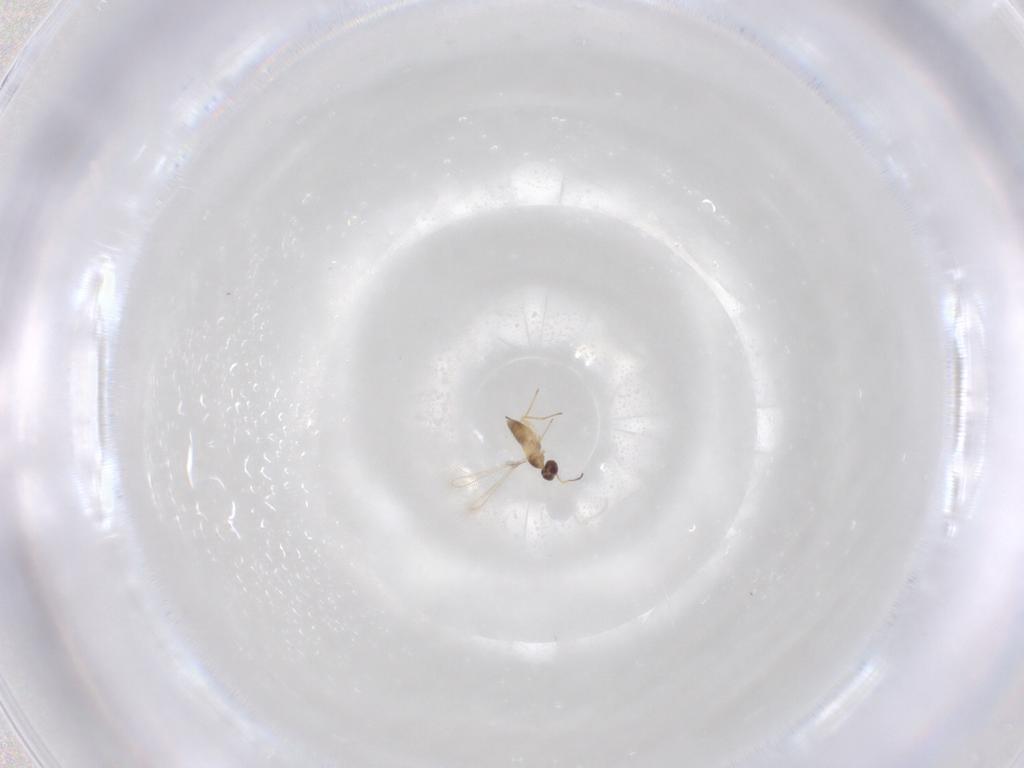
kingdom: Animalia
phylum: Arthropoda
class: Insecta
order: Hymenoptera
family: Mymaridae
